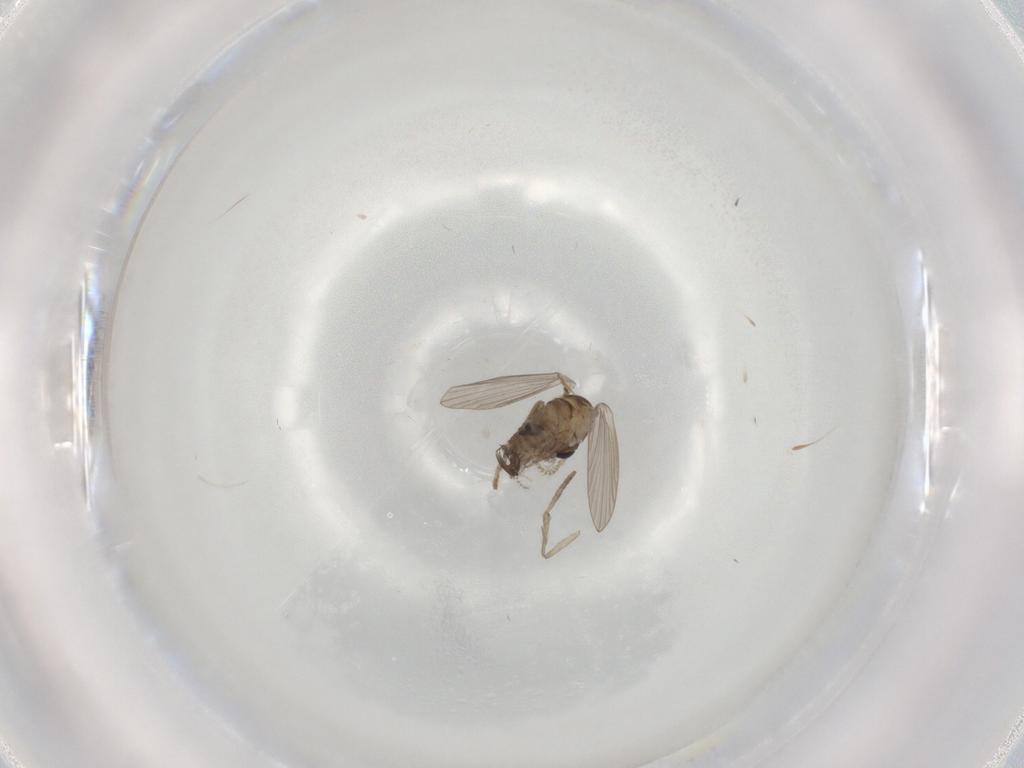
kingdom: Animalia
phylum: Arthropoda
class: Insecta
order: Diptera
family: Psychodidae
